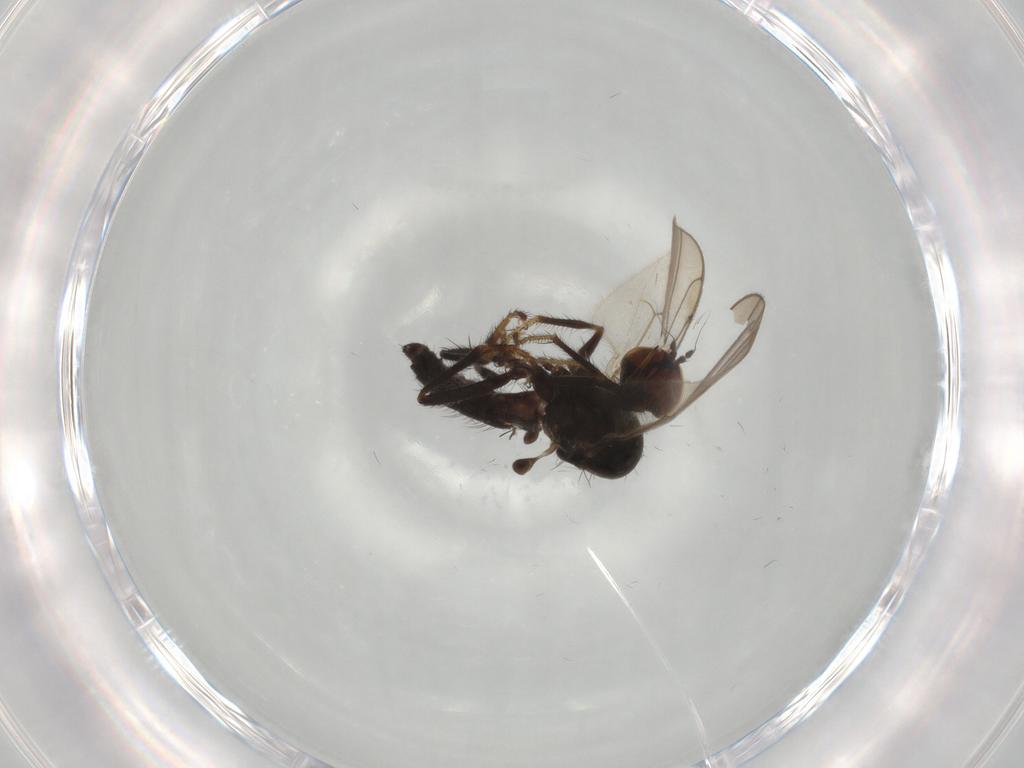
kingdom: Animalia
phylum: Arthropoda
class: Insecta
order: Diptera
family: Hybotidae
